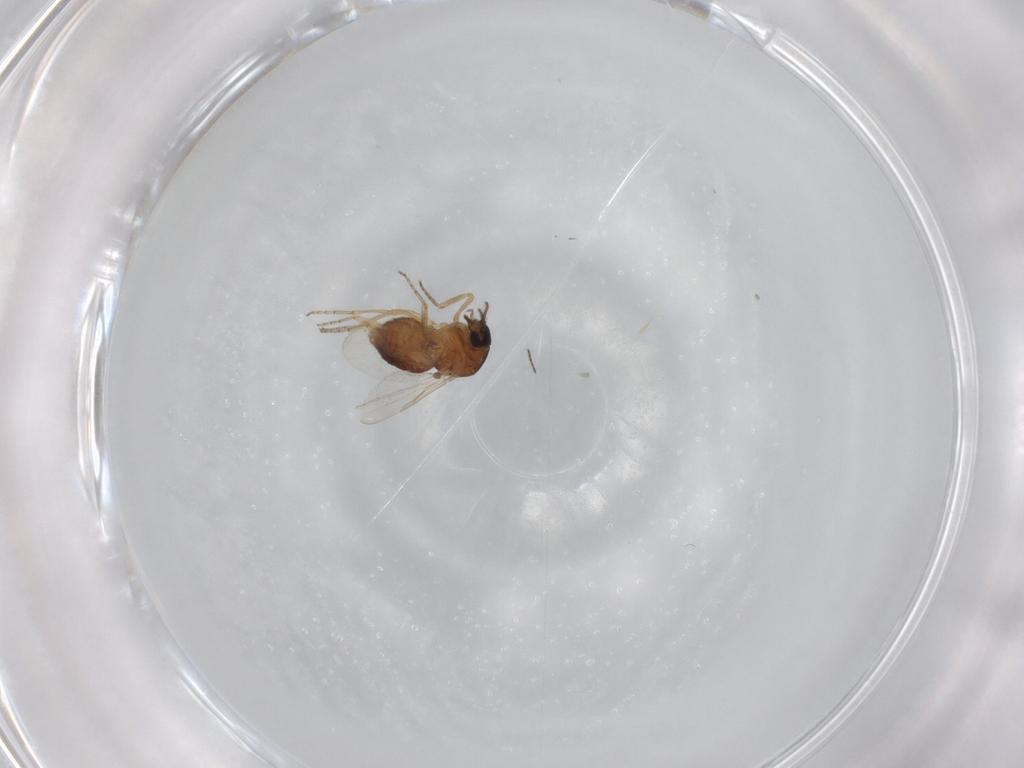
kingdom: Animalia
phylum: Arthropoda
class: Insecta
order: Diptera
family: Ceratopogonidae
